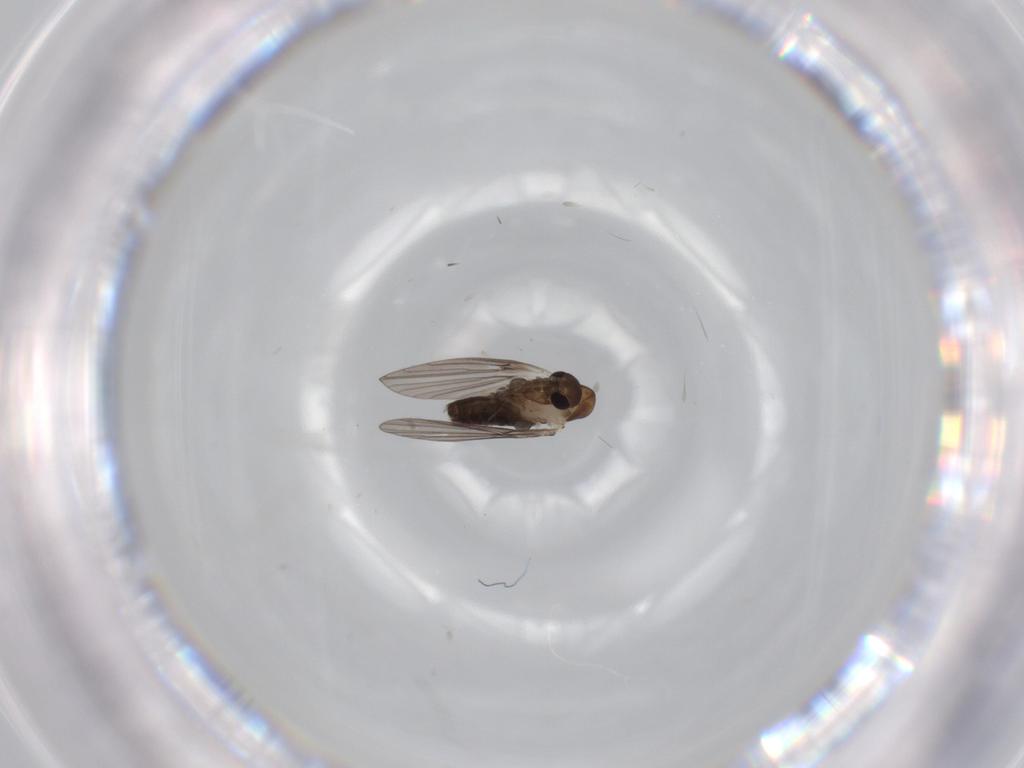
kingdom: Animalia
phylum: Arthropoda
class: Insecta
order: Diptera
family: Psychodidae
